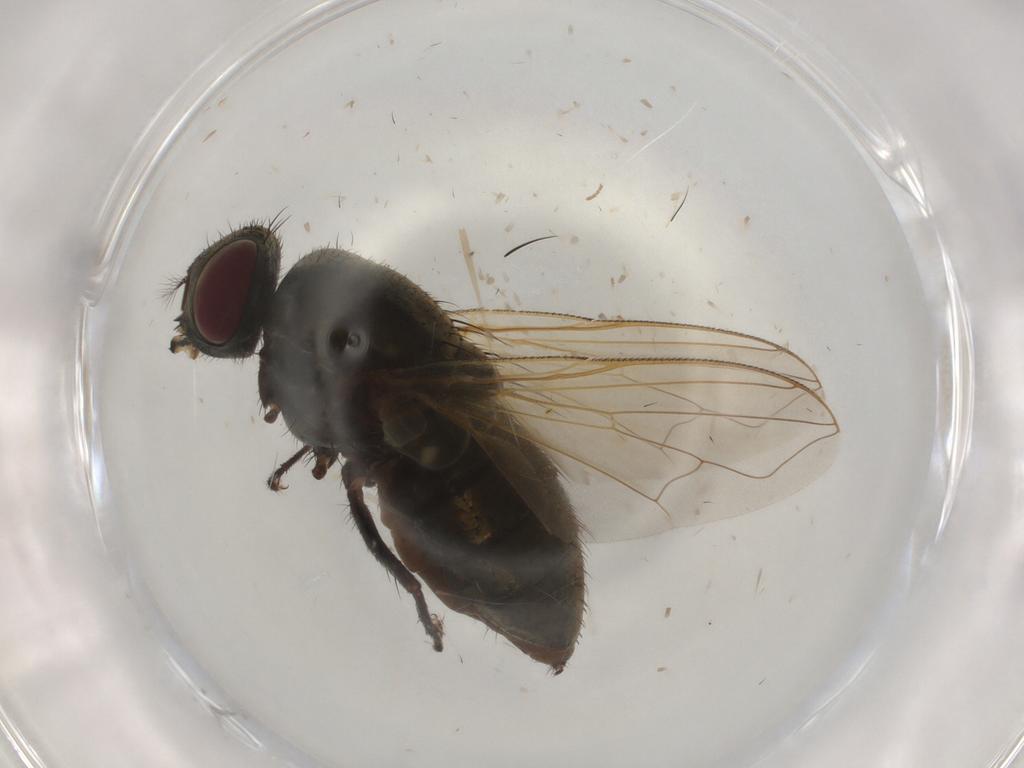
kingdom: Animalia
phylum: Arthropoda
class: Insecta
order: Diptera
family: Muscidae
